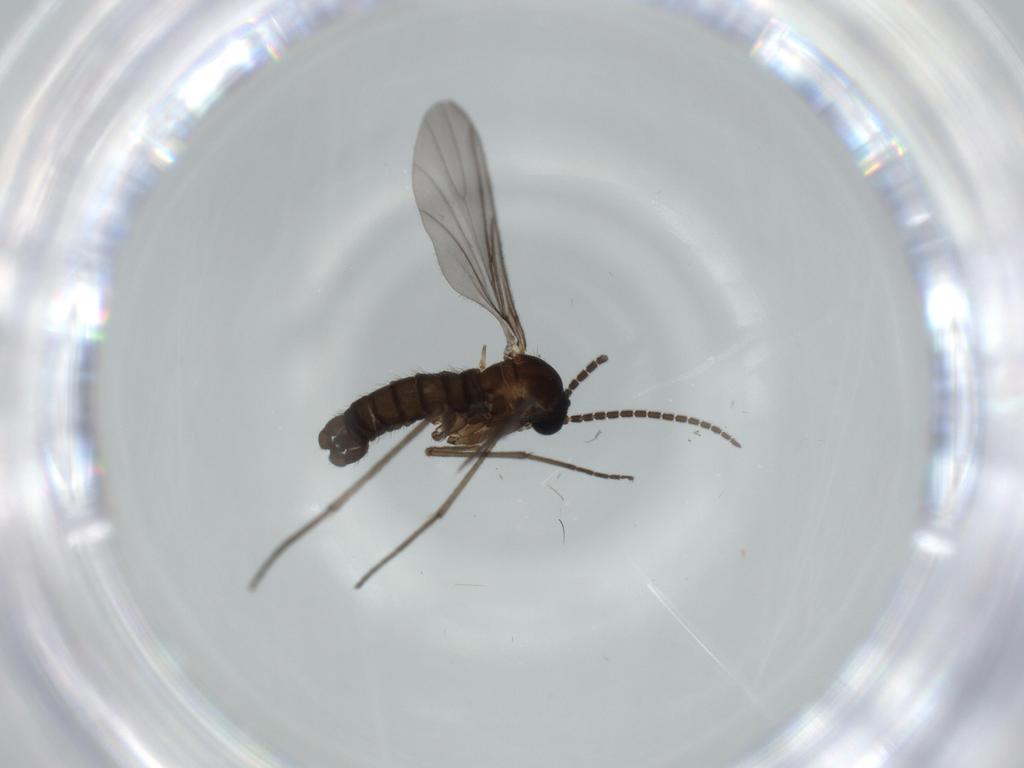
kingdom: Animalia
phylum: Arthropoda
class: Insecta
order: Diptera
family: Sciaridae
